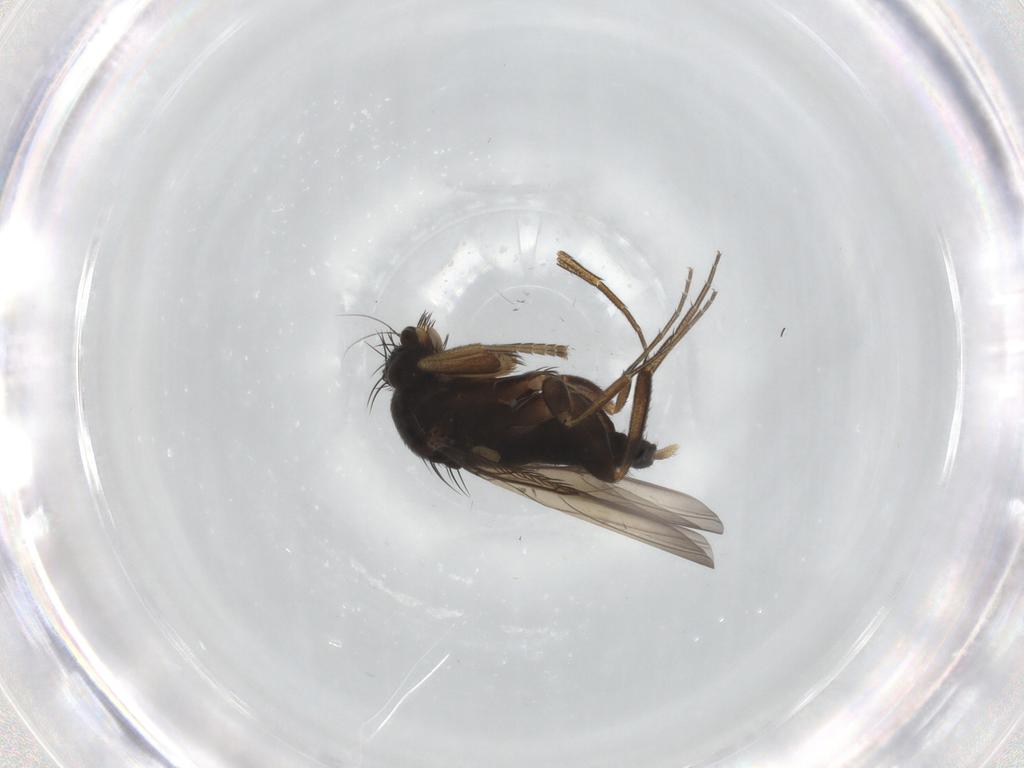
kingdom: Animalia
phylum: Arthropoda
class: Insecta
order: Diptera
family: Phoridae
